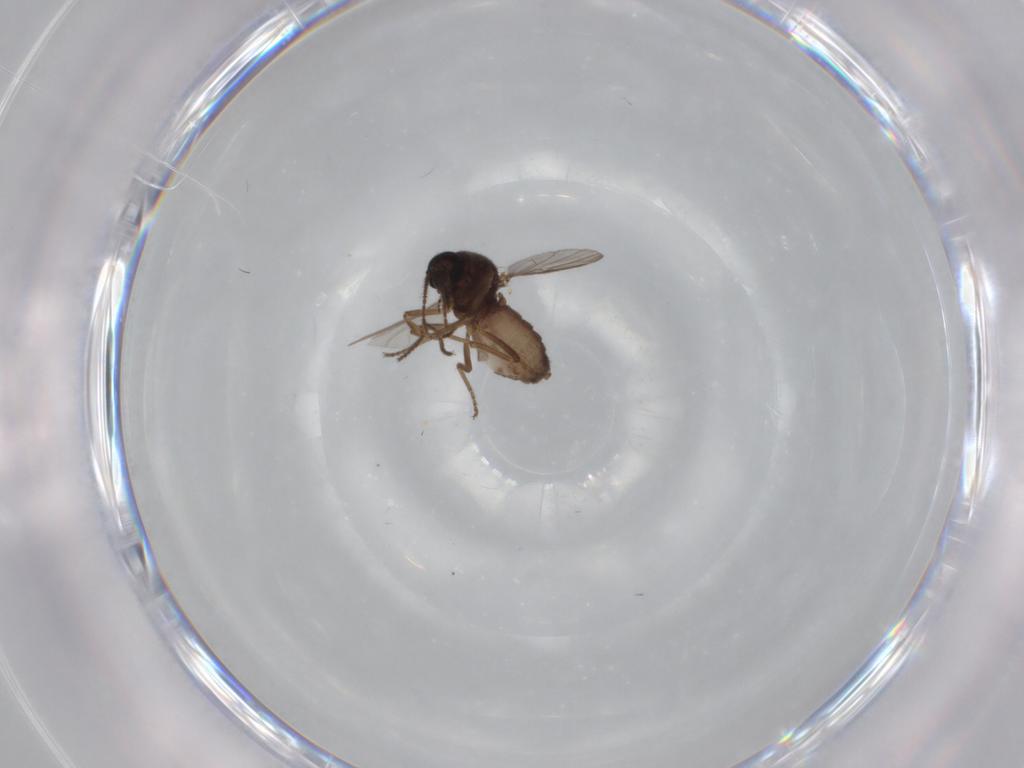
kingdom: Animalia
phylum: Arthropoda
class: Insecta
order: Diptera
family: Ceratopogonidae
